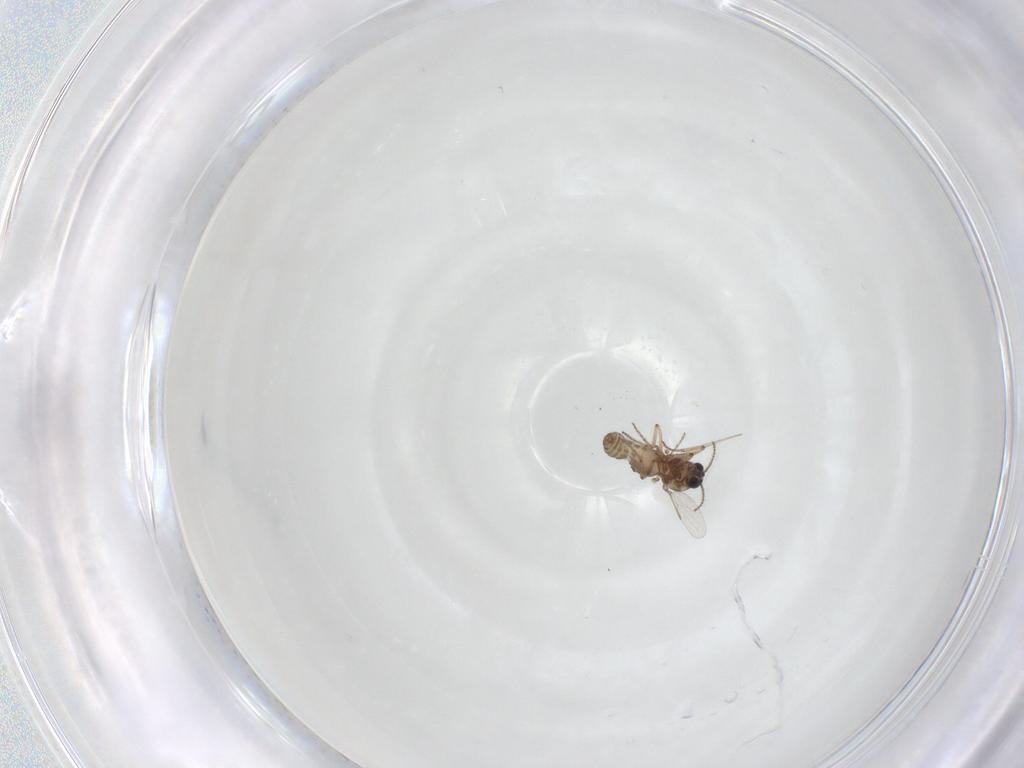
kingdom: Animalia
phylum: Arthropoda
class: Insecta
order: Diptera
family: Ceratopogonidae
